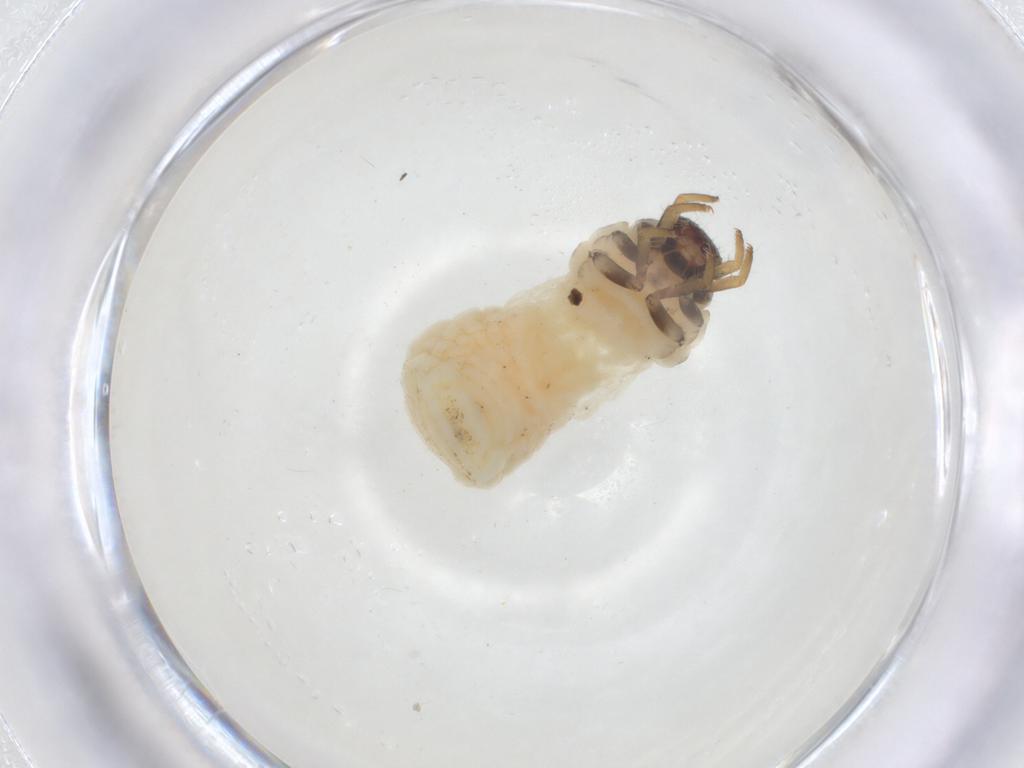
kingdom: Animalia
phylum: Arthropoda
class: Insecta
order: Coleoptera
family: Chrysomelidae
